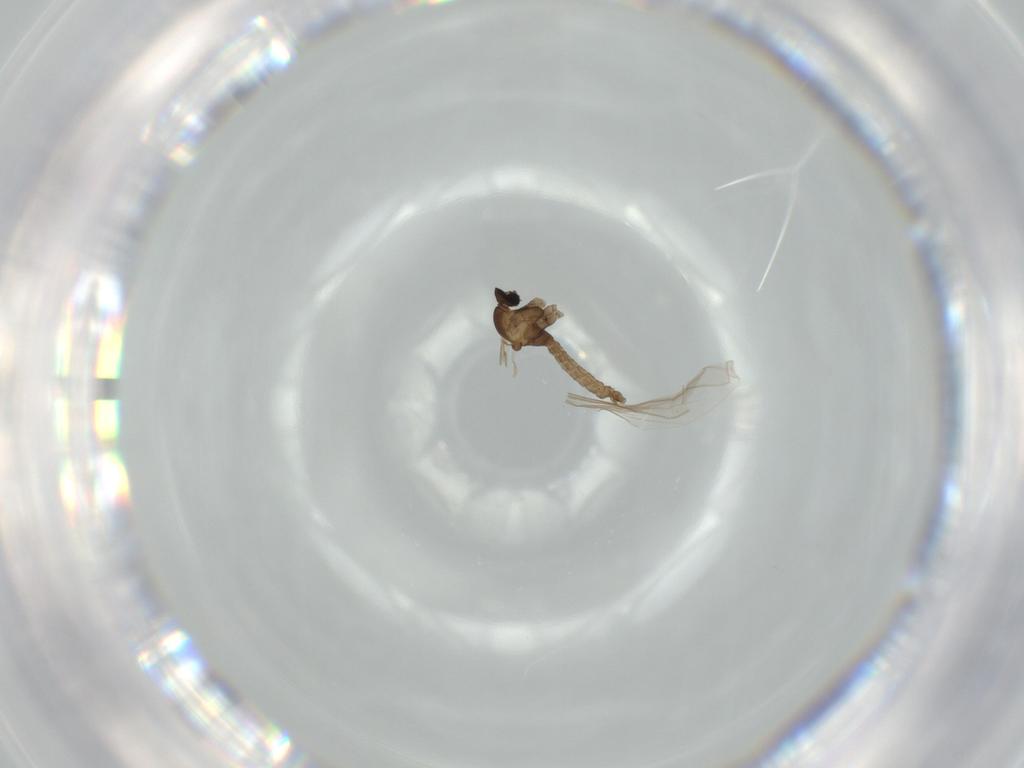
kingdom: Animalia
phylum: Arthropoda
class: Insecta
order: Diptera
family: Cecidomyiidae
